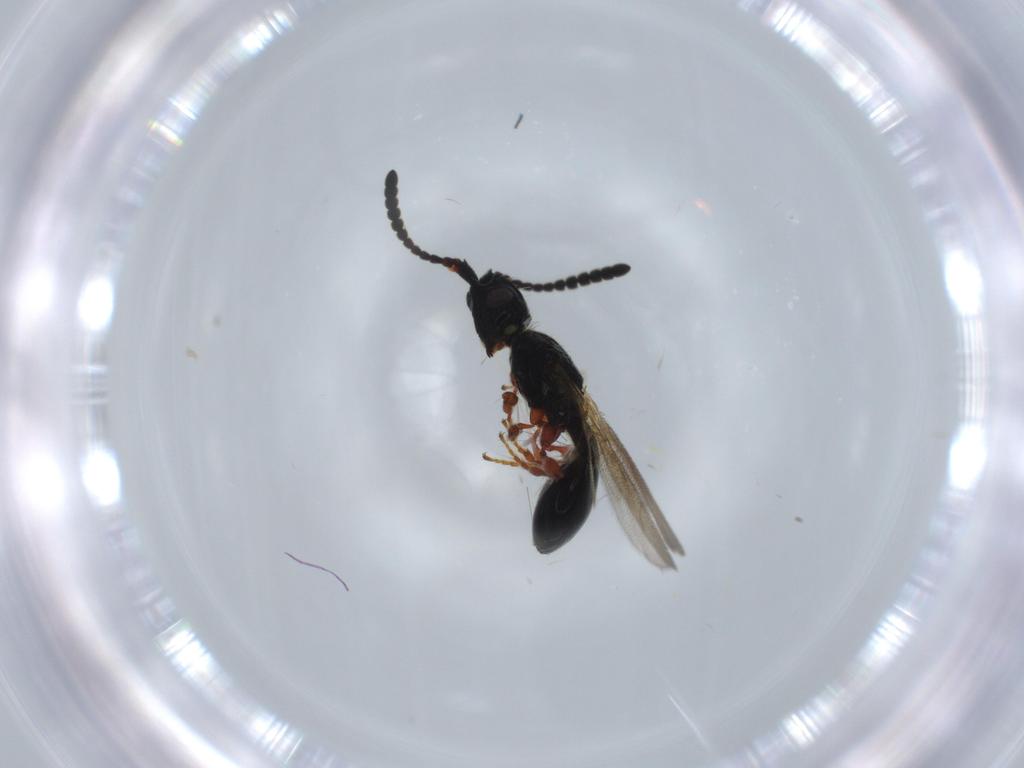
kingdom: Animalia
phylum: Arthropoda
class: Insecta
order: Hymenoptera
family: Diapriidae
